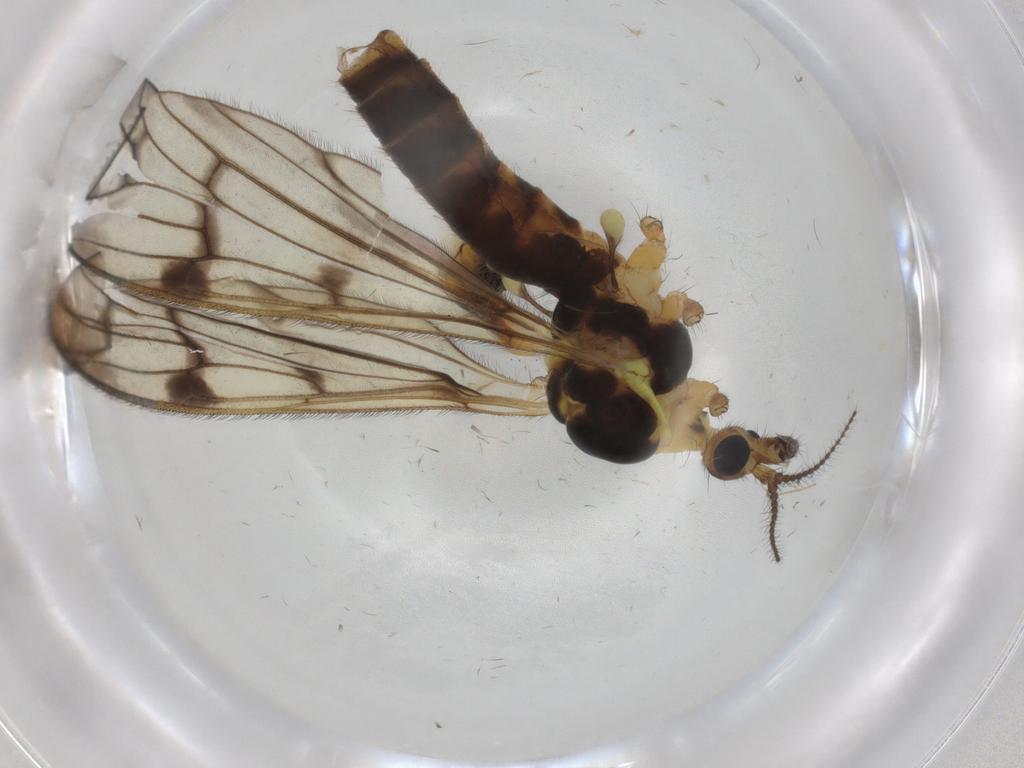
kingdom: Animalia
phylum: Arthropoda
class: Insecta
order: Diptera
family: Limoniidae
